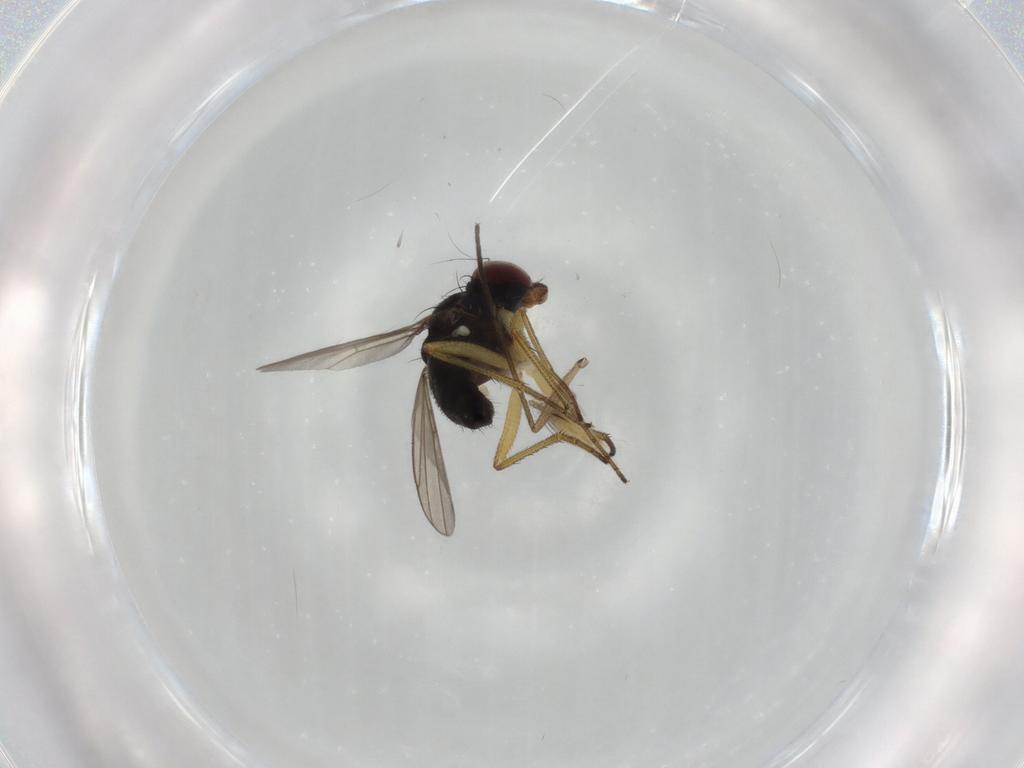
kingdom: Animalia
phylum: Arthropoda
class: Insecta
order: Diptera
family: Dolichopodidae
